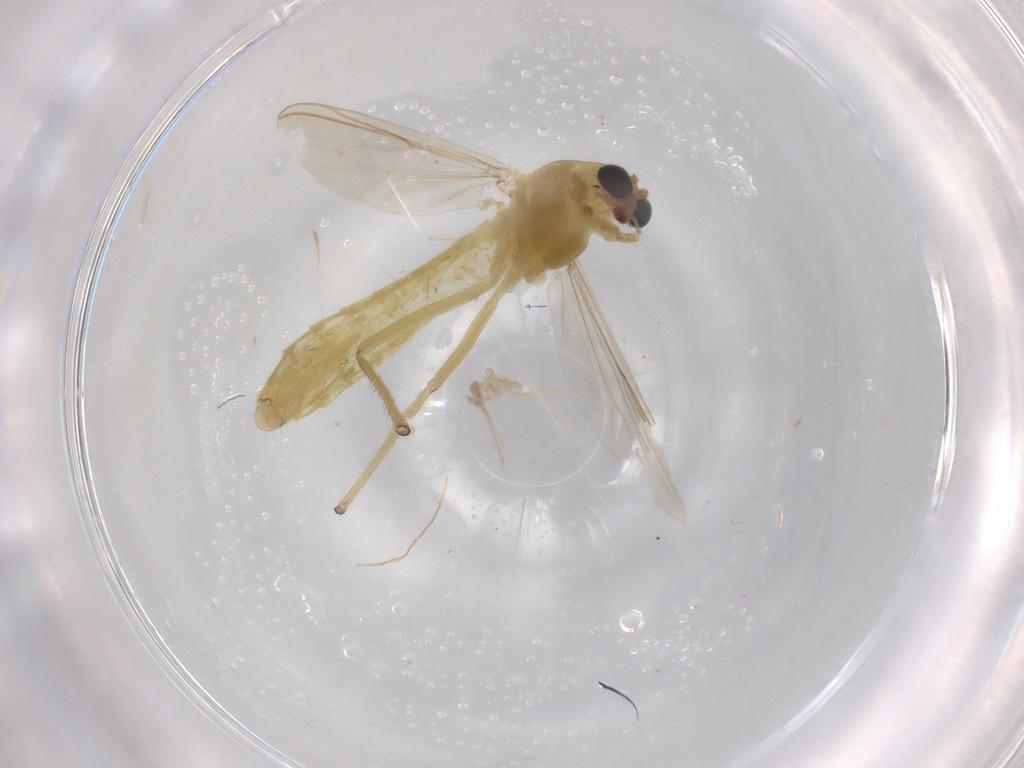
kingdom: Animalia
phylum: Arthropoda
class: Insecta
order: Diptera
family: Chironomidae
